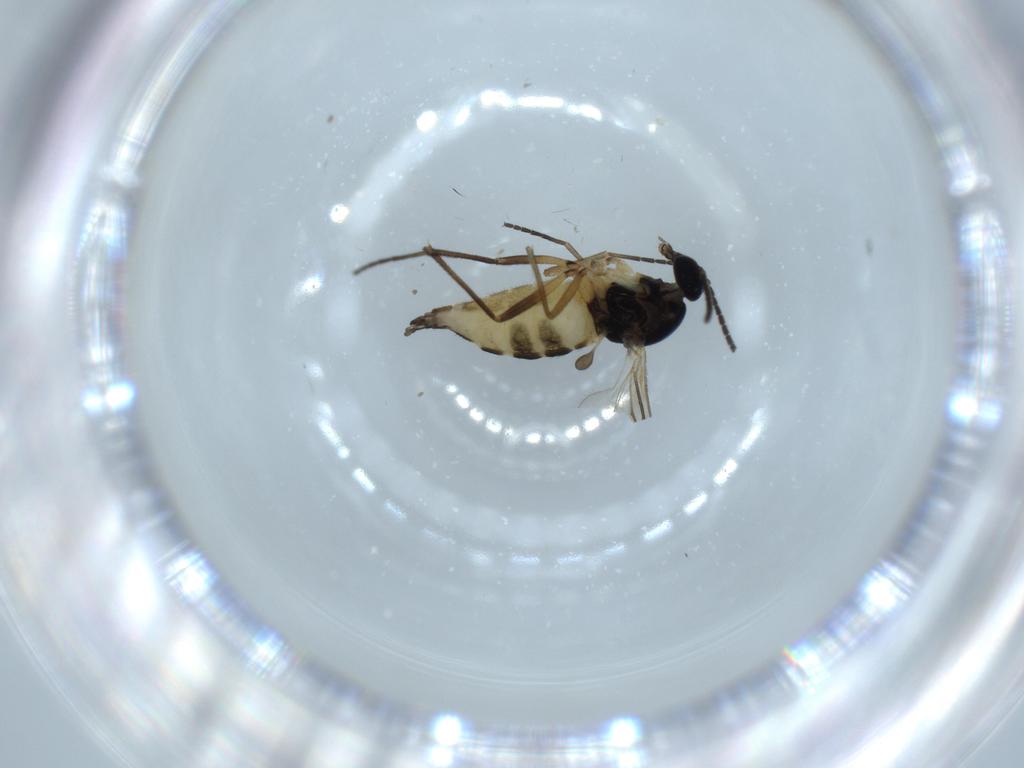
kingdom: Animalia
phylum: Arthropoda
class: Insecta
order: Diptera
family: Sciaridae
